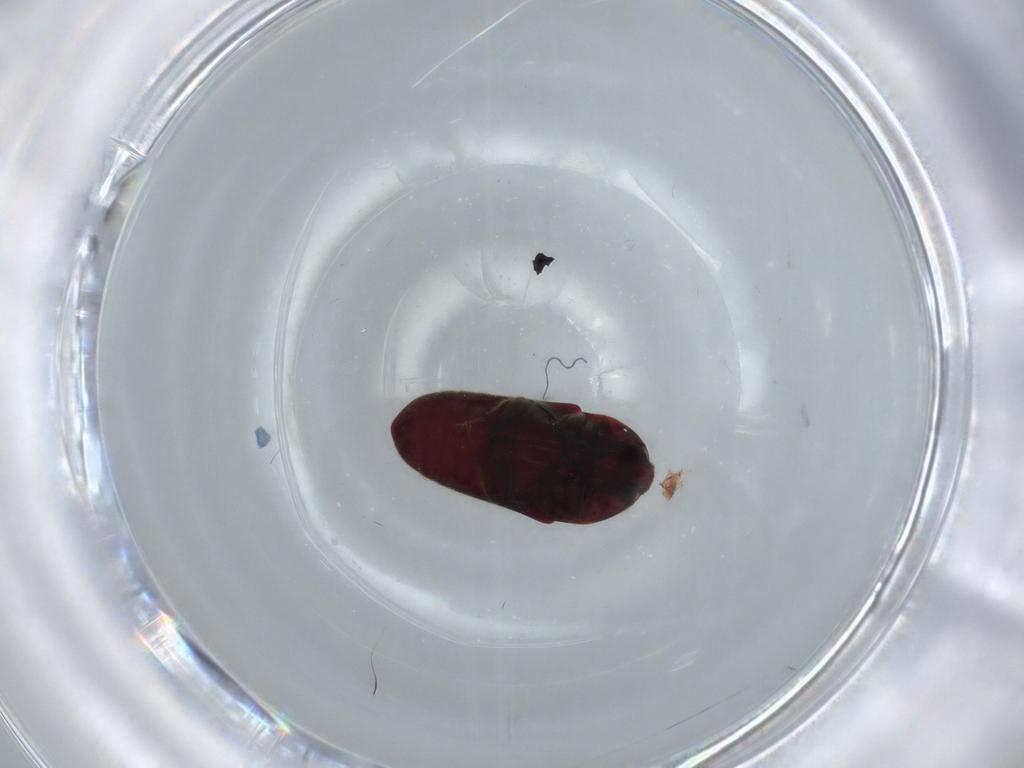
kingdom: Animalia
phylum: Arthropoda
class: Insecta
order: Coleoptera
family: Throscidae
